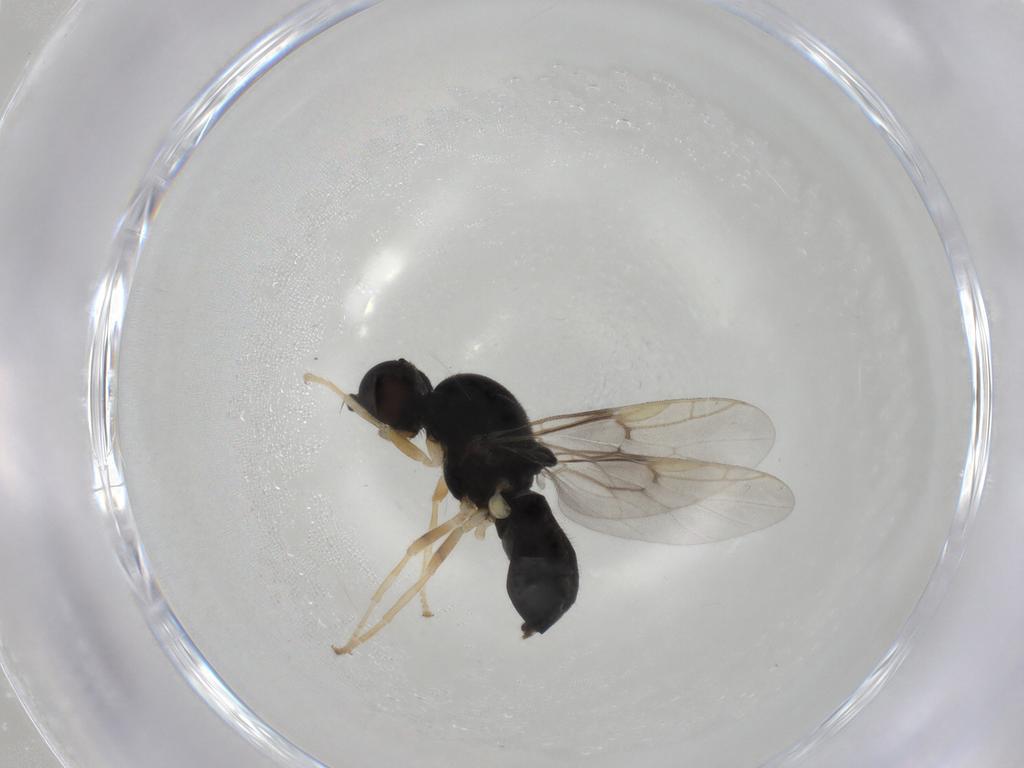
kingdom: Animalia
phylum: Arthropoda
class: Insecta
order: Diptera
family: Stratiomyidae
